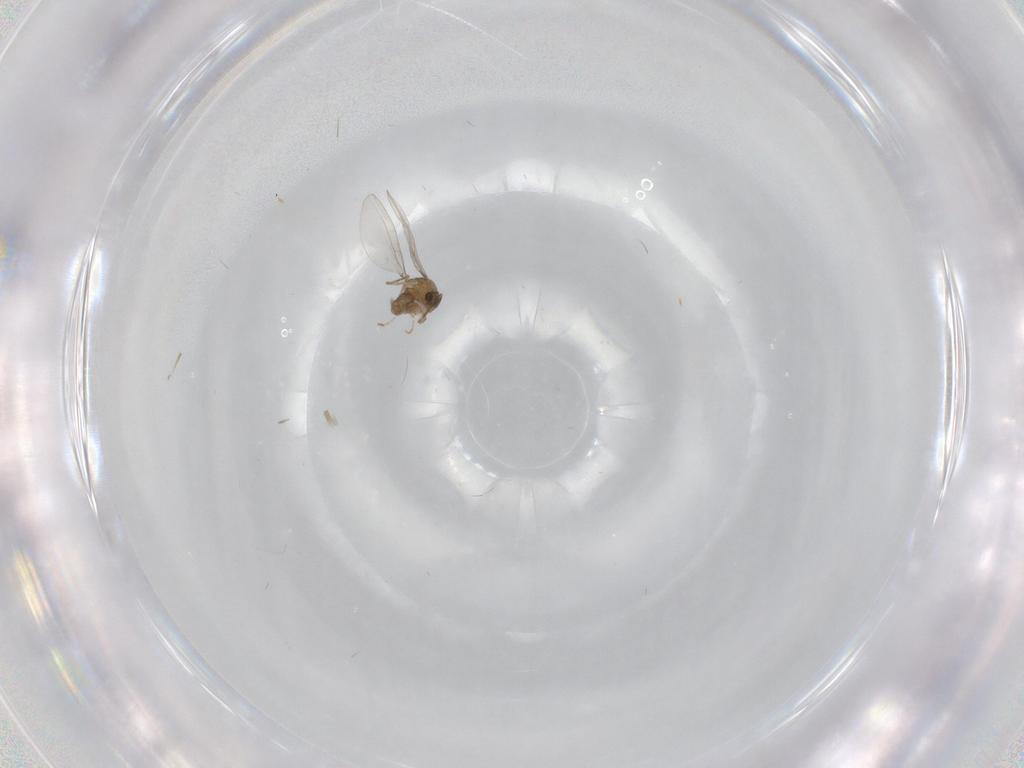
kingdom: Animalia
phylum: Arthropoda
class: Insecta
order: Diptera
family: Cecidomyiidae
